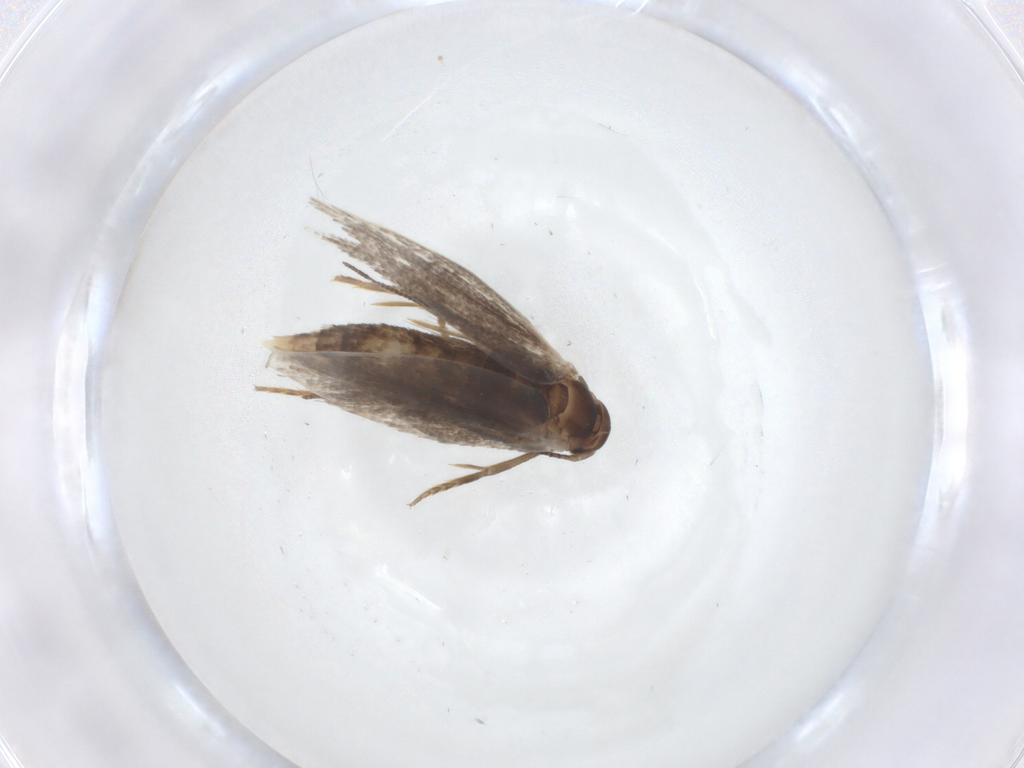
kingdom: Animalia
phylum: Arthropoda
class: Insecta
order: Lepidoptera
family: Elachistidae
